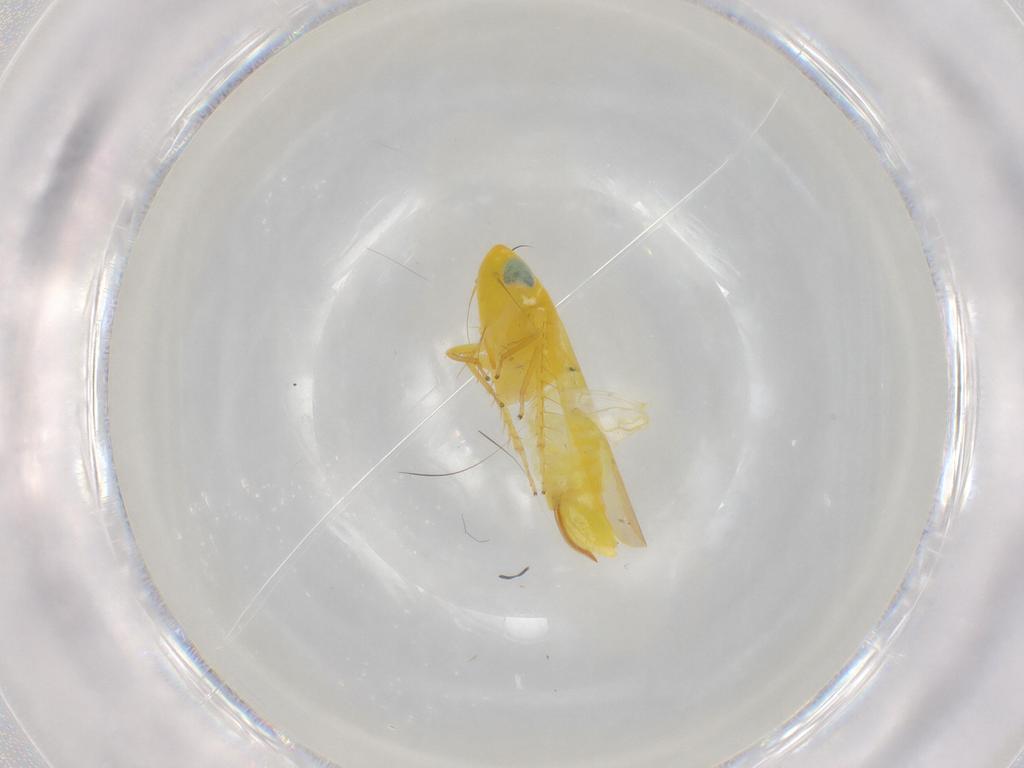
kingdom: Animalia
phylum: Arthropoda
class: Insecta
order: Hemiptera
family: Cicadellidae
